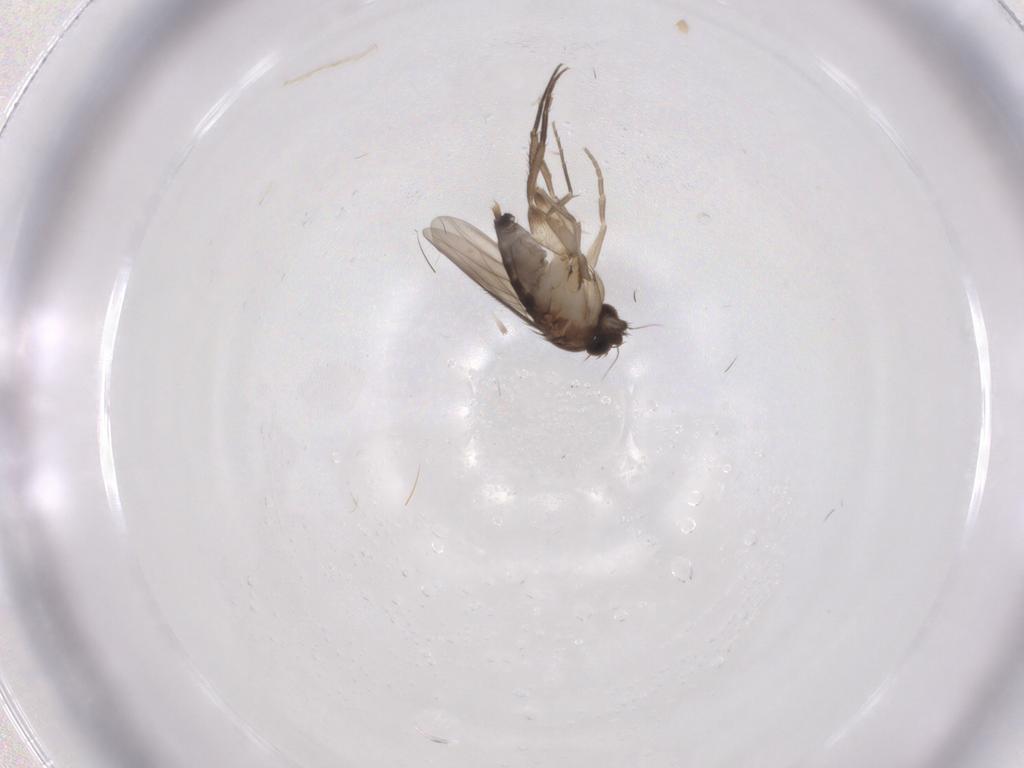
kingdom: Animalia
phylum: Arthropoda
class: Insecta
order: Diptera
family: Phoridae
